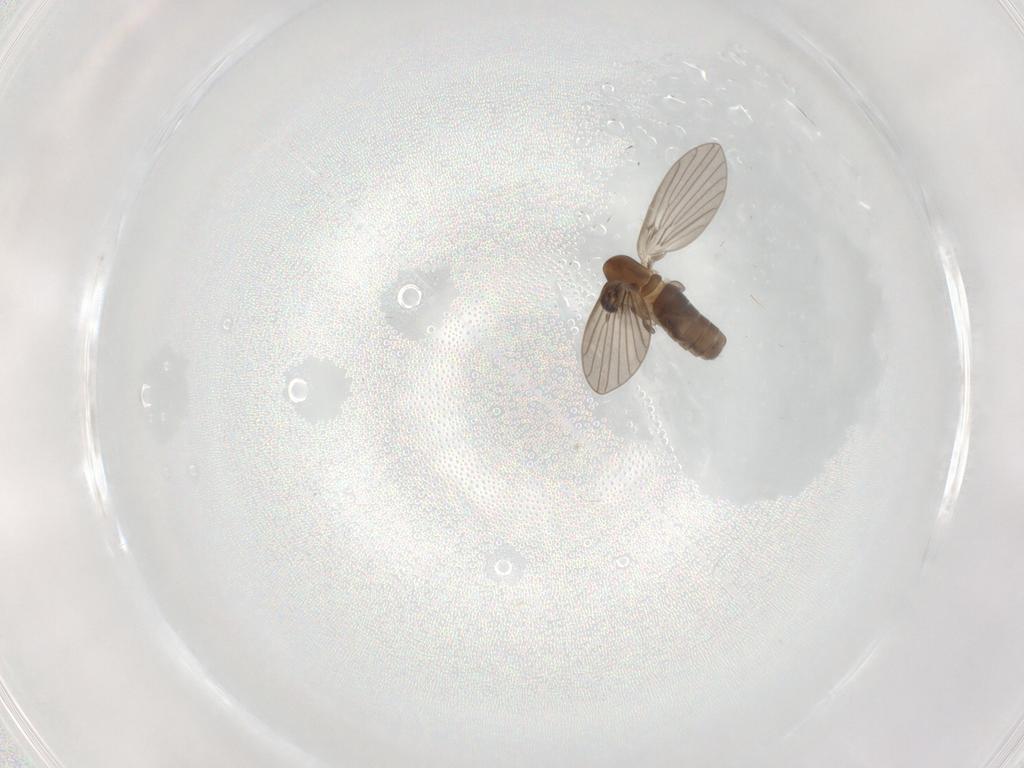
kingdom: Animalia
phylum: Arthropoda
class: Insecta
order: Diptera
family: Psychodidae
